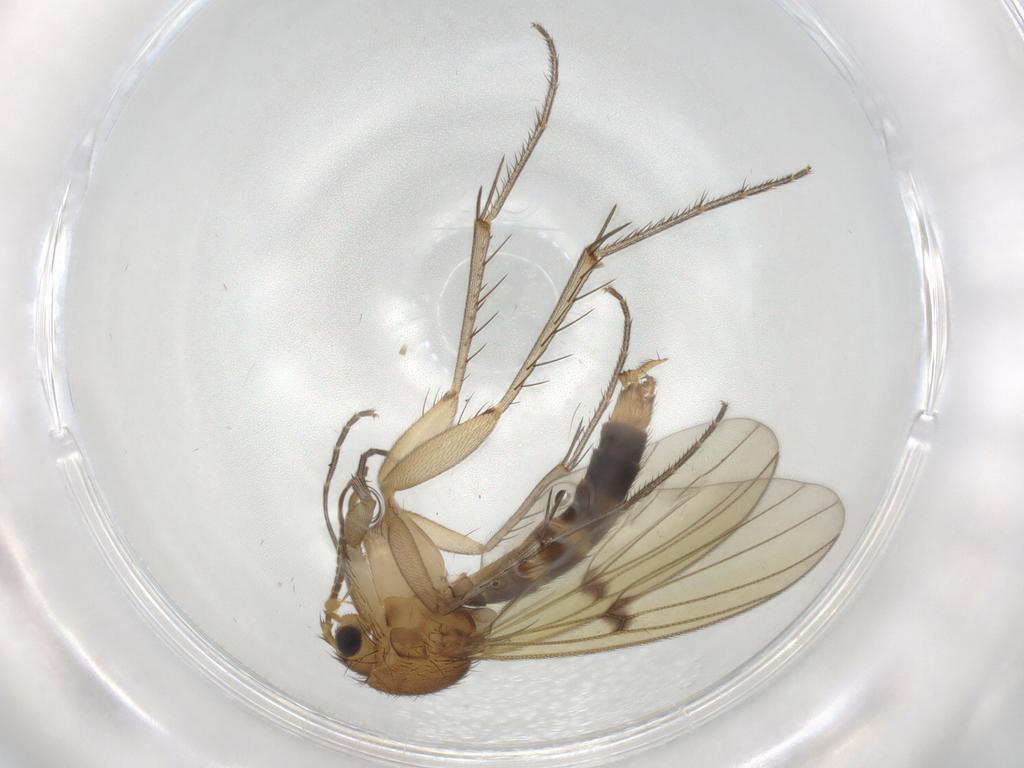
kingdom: Animalia
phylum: Arthropoda
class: Insecta
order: Diptera
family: Mycetophilidae
